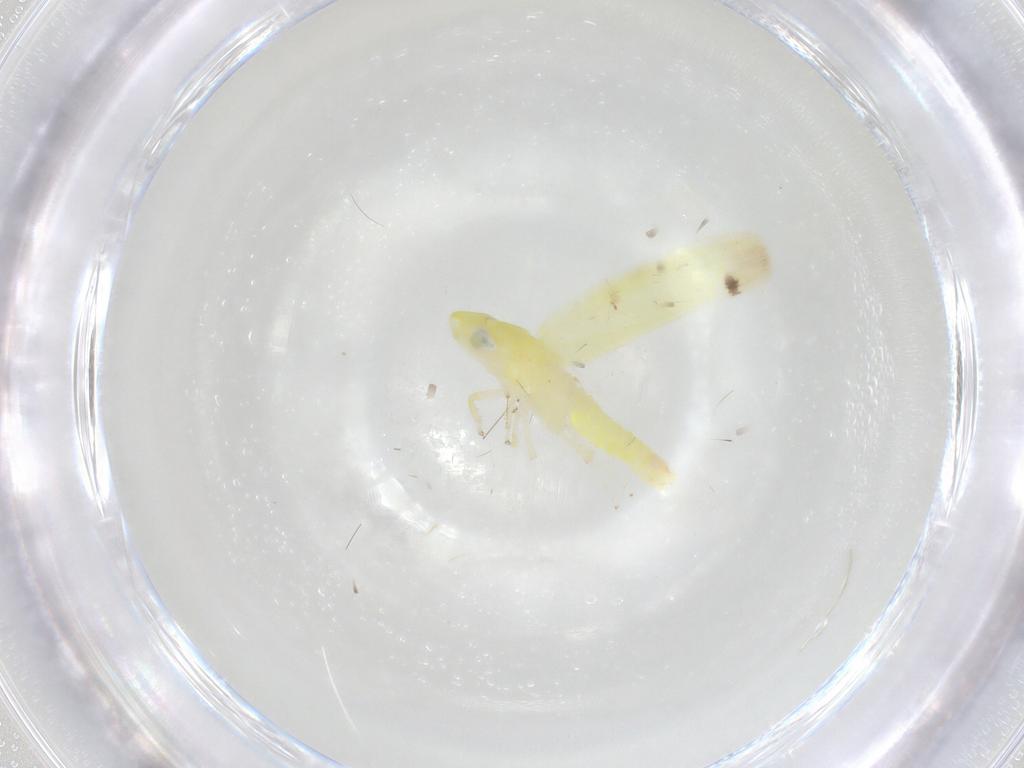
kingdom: Animalia
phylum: Arthropoda
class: Insecta
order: Hemiptera
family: Cicadellidae
